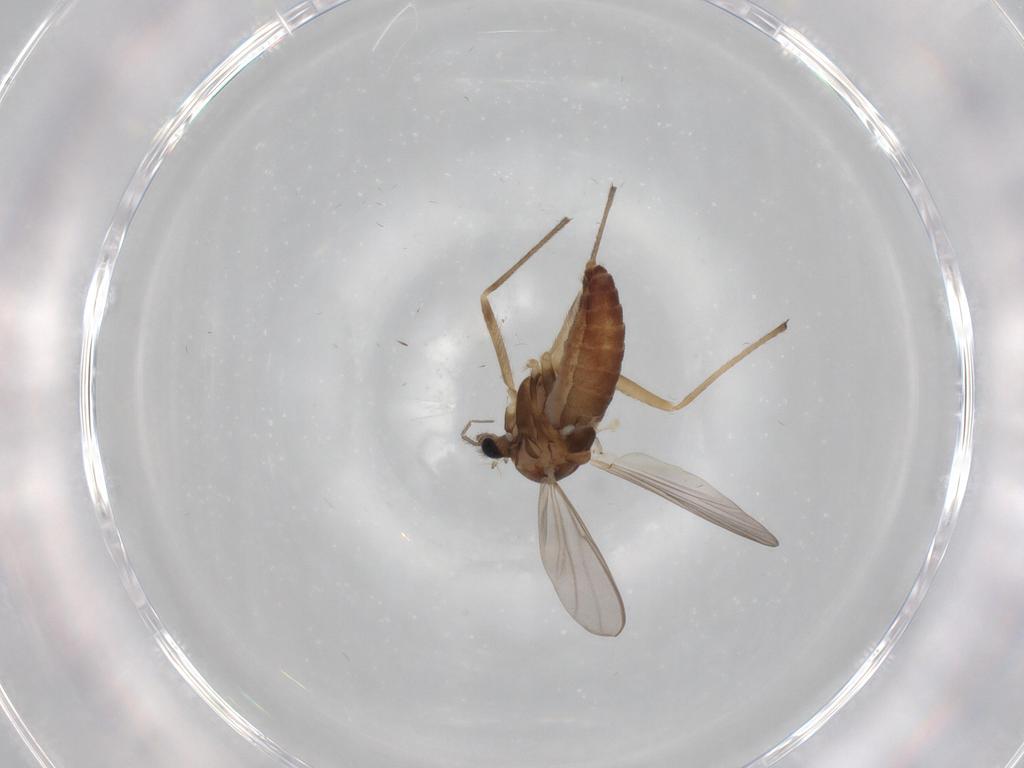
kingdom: Animalia
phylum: Arthropoda
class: Insecta
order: Diptera
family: Chironomidae
